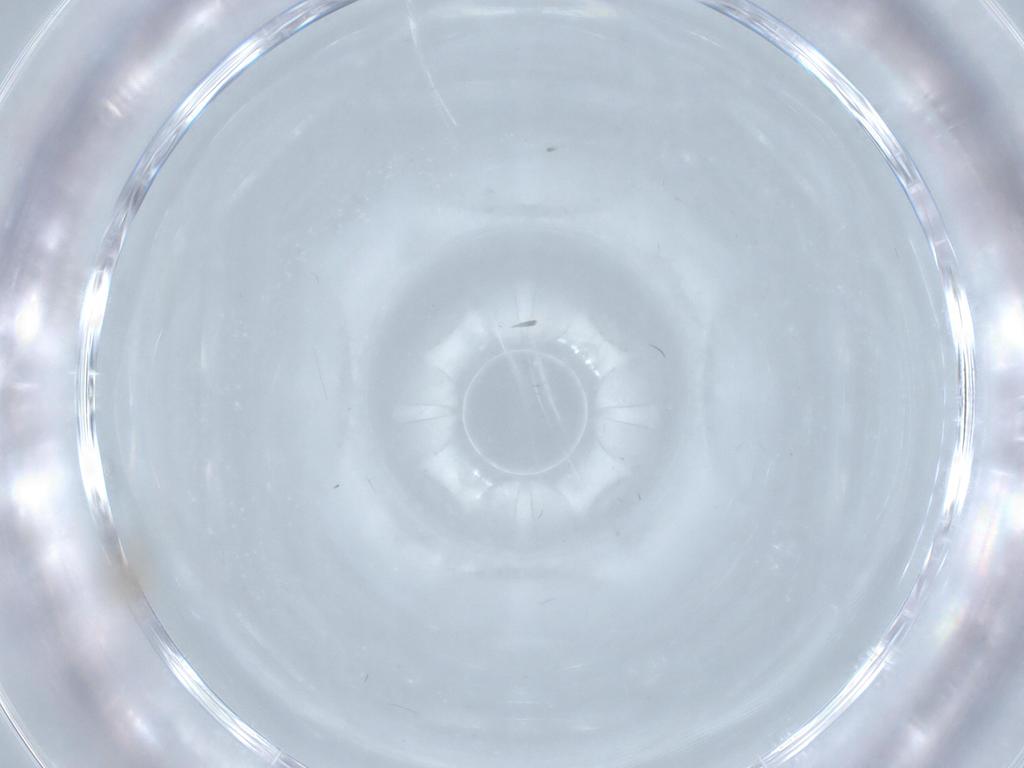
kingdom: Animalia
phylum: Arthropoda
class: Insecta
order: Diptera
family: Cecidomyiidae
